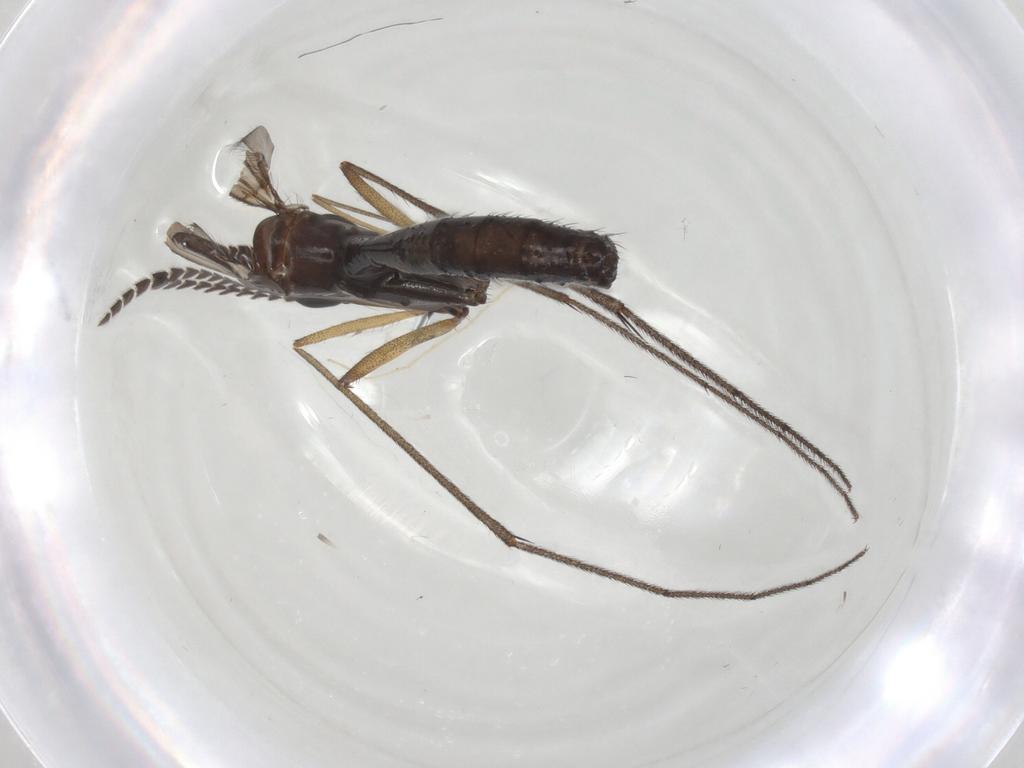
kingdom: Animalia
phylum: Arthropoda
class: Insecta
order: Diptera
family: Ditomyiidae
